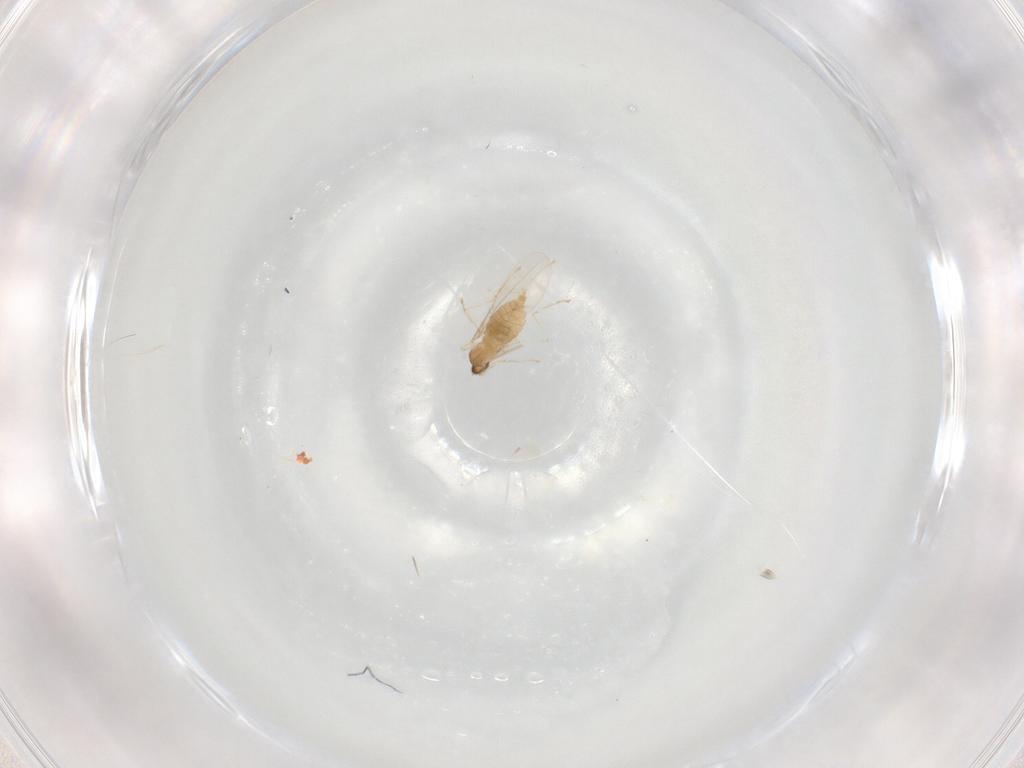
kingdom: Animalia
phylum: Arthropoda
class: Insecta
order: Diptera
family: Cecidomyiidae
